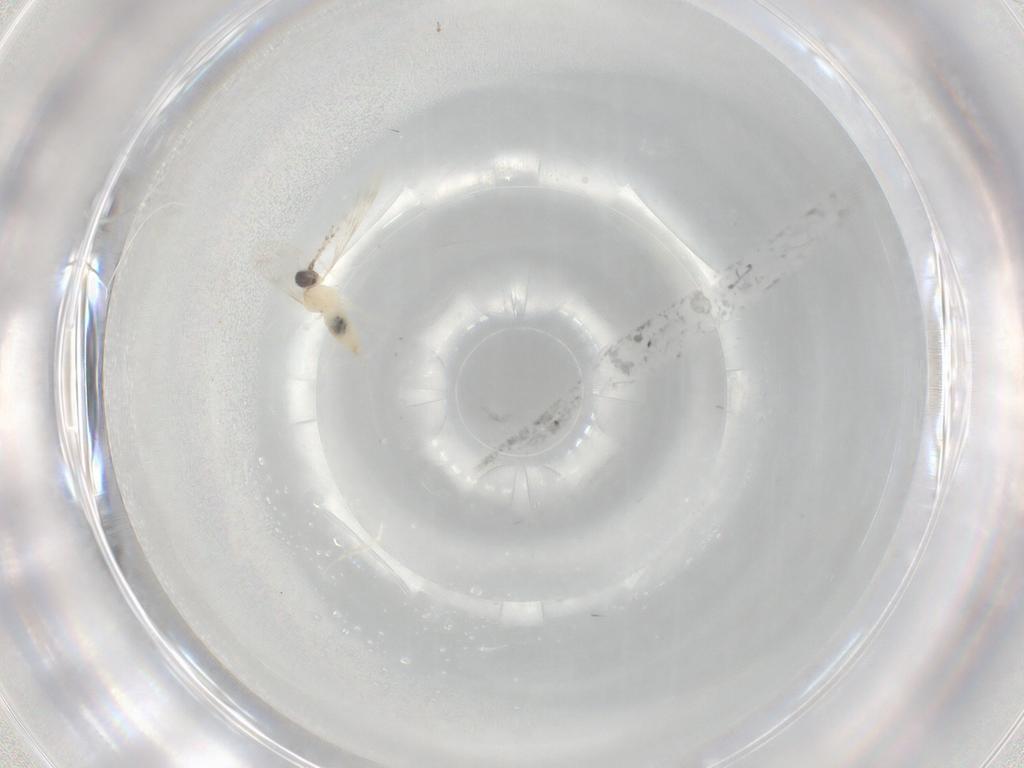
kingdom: Animalia
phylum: Arthropoda
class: Insecta
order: Diptera
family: Cecidomyiidae
